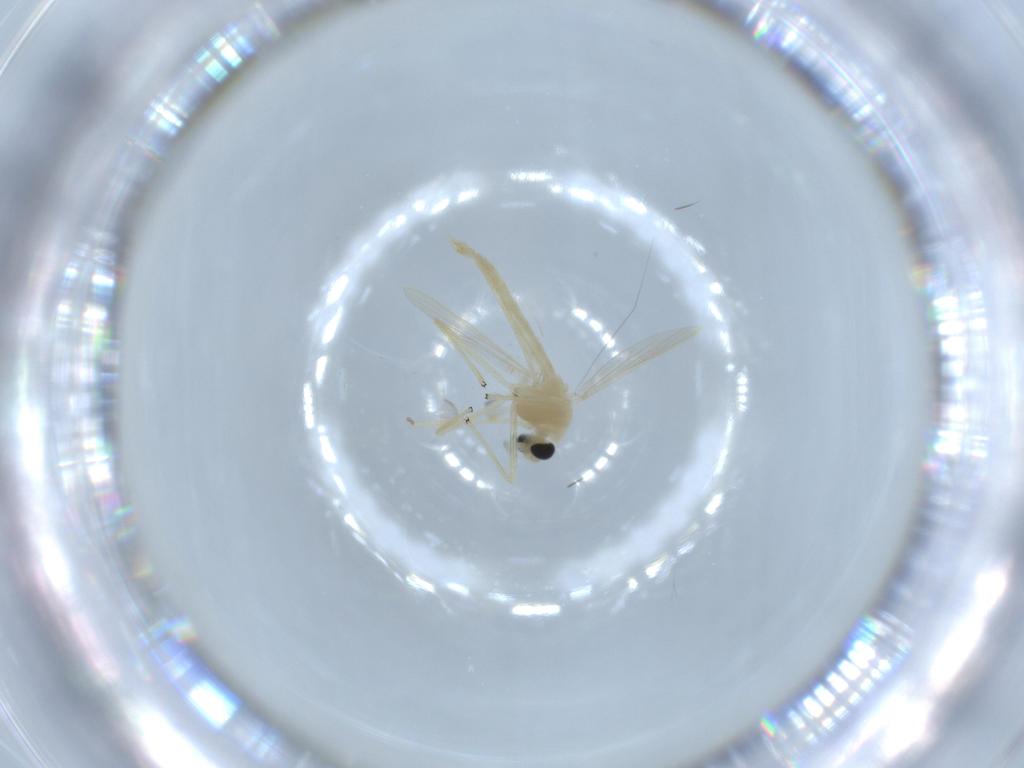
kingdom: Animalia
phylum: Arthropoda
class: Insecta
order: Diptera
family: Chironomidae
